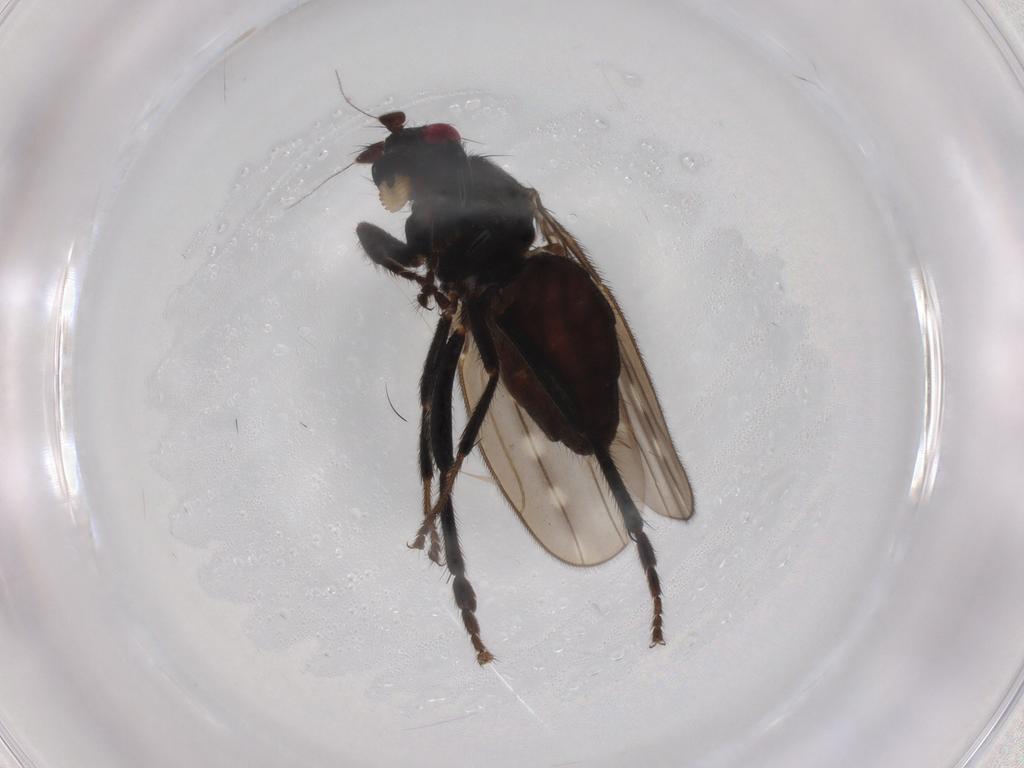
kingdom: Animalia
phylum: Arthropoda
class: Insecta
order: Diptera
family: Sphaeroceridae
